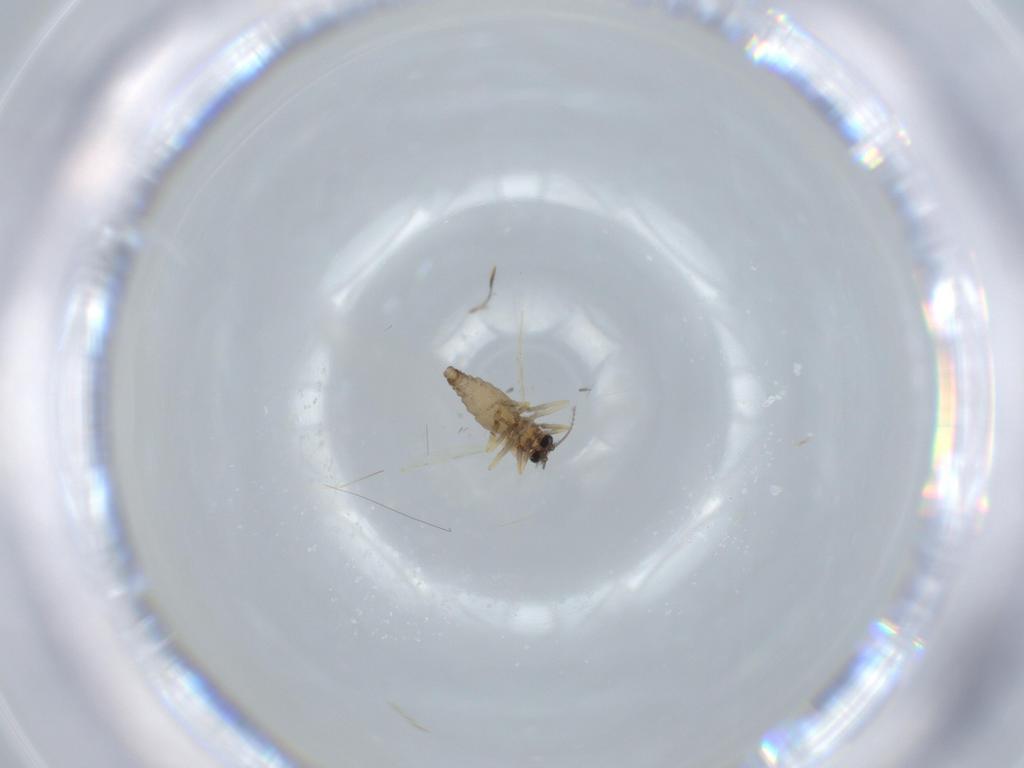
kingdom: Animalia
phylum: Arthropoda
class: Insecta
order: Diptera
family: Ceratopogonidae
